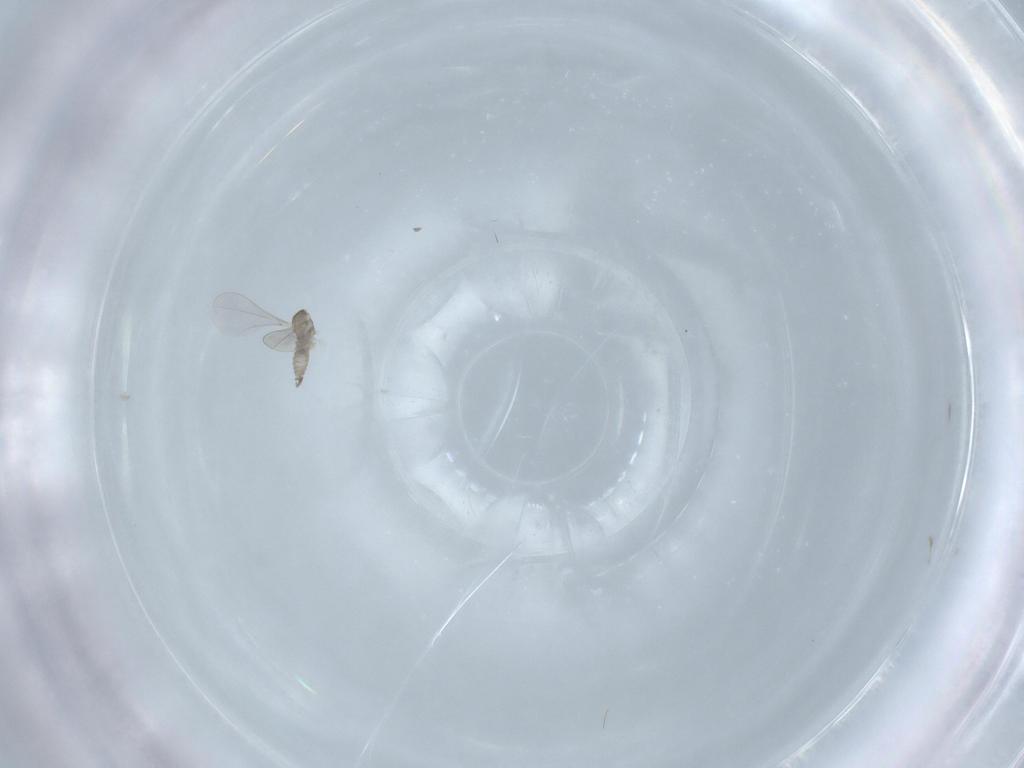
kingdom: Animalia
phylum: Arthropoda
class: Insecta
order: Diptera
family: Cecidomyiidae
